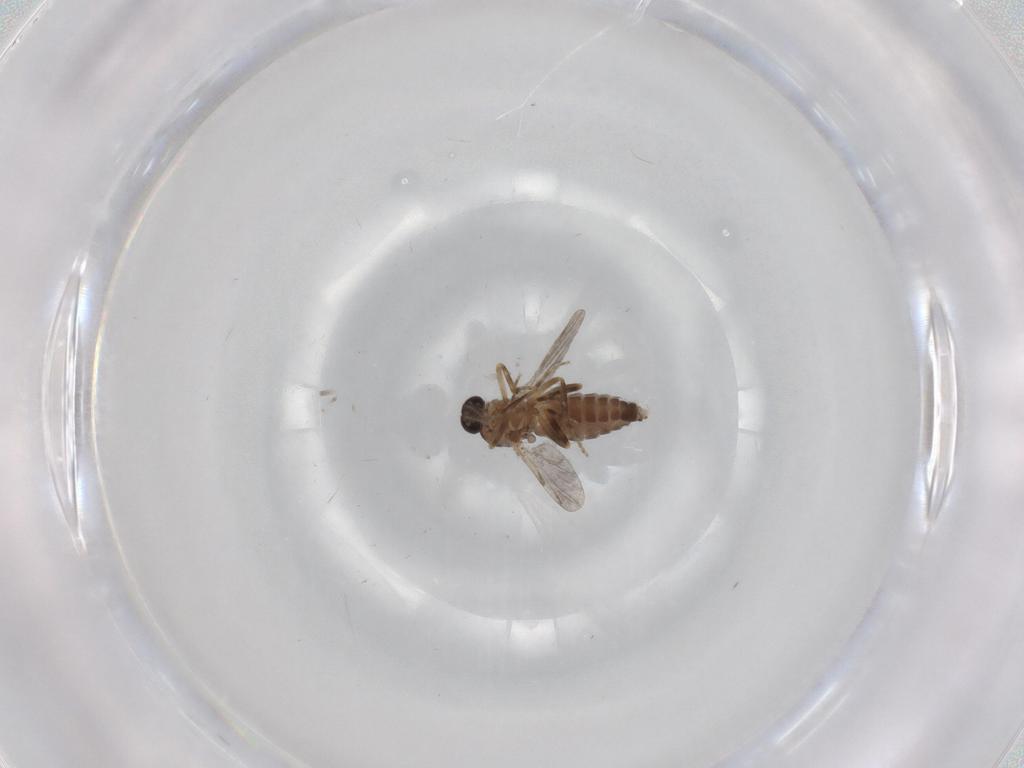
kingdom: Animalia
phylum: Arthropoda
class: Insecta
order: Diptera
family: Ceratopogonidae
